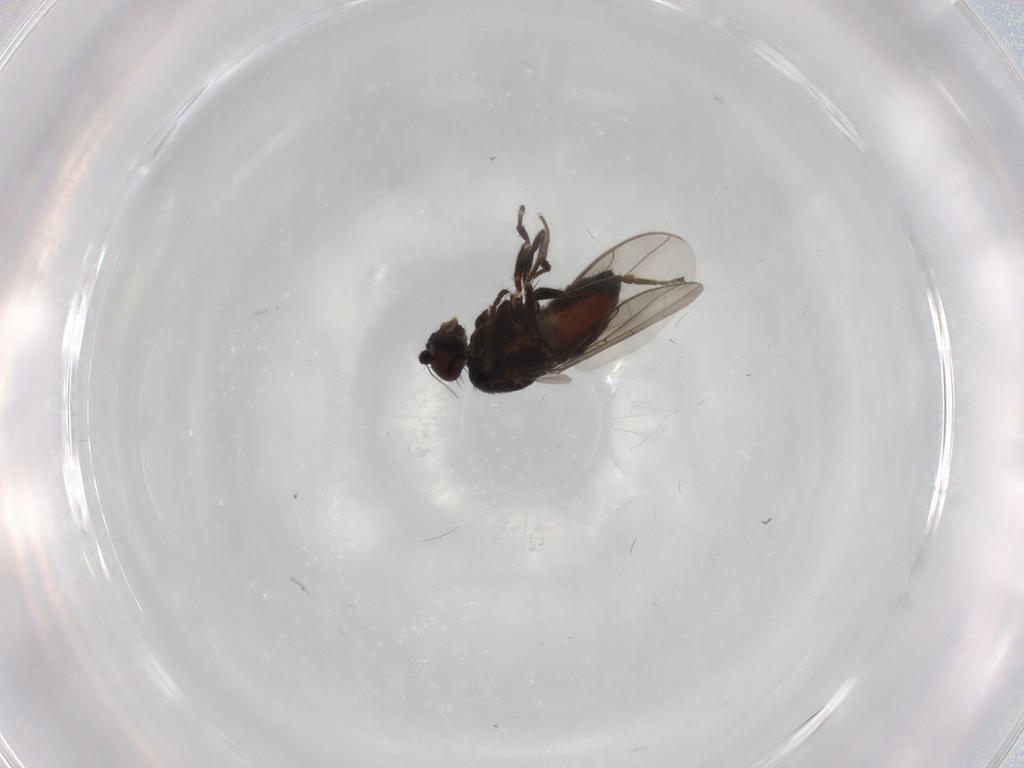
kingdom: Animalia
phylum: Arthropoda
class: Insecta
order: Diptera
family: Sphaeroceridae
